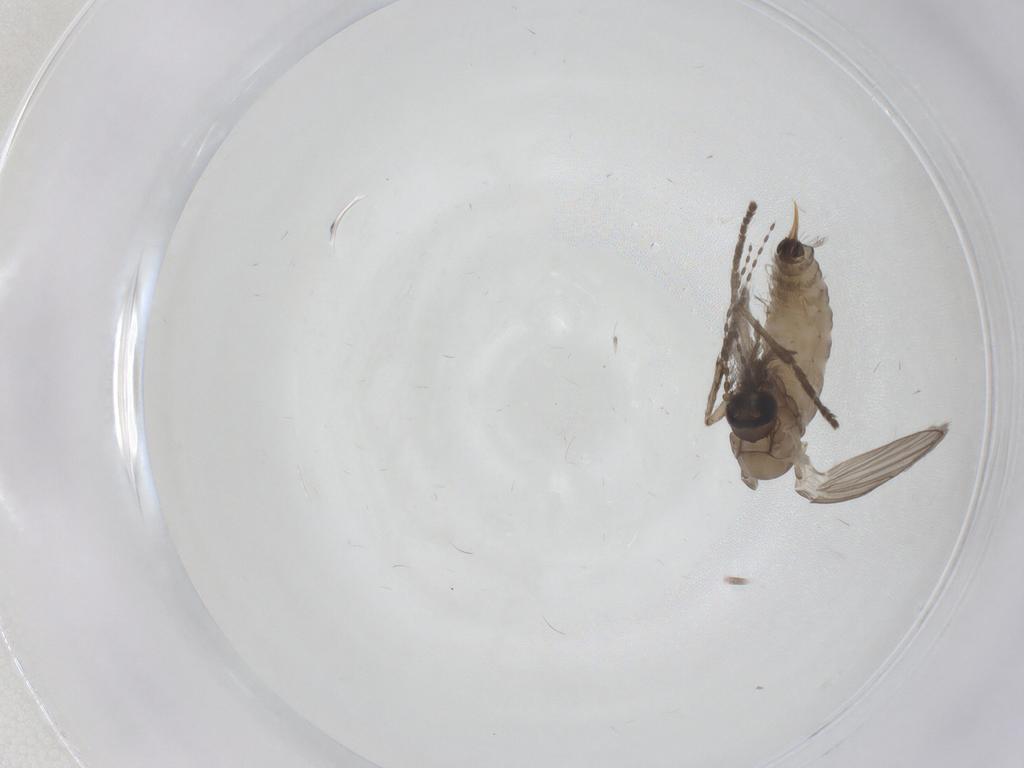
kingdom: Animalia
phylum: Arthropoda
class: Insecta
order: Diptera
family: Psychodidae
